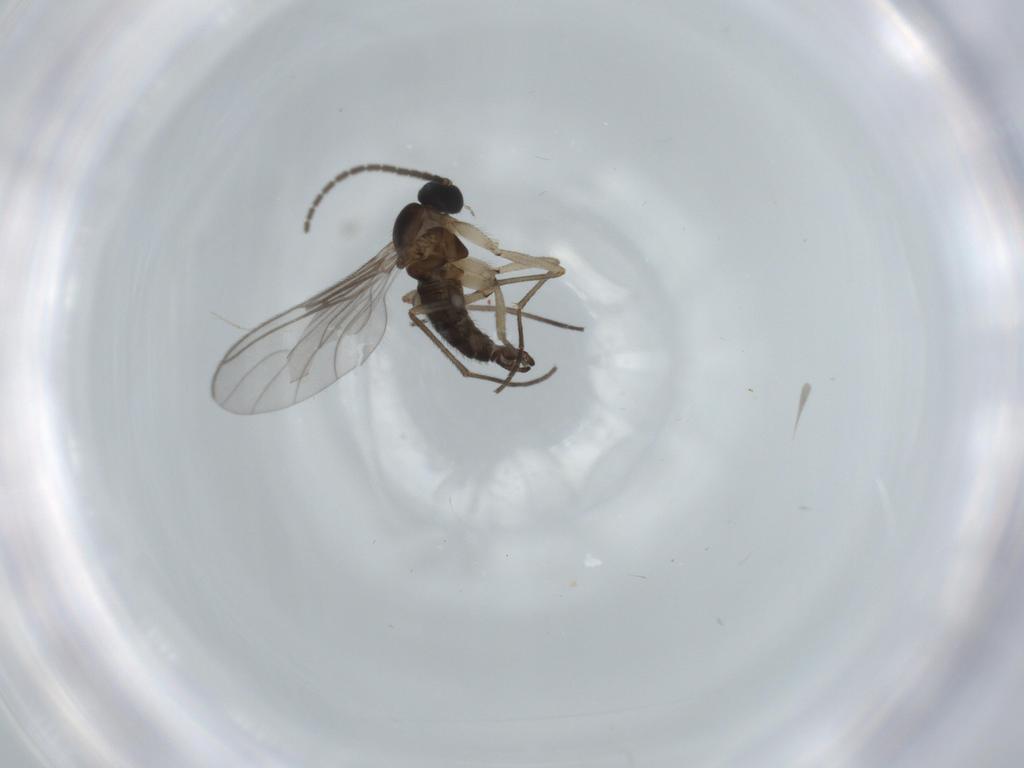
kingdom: Animalia
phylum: Arthropoda
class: Insecta
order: Diptera
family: Sciaridae
